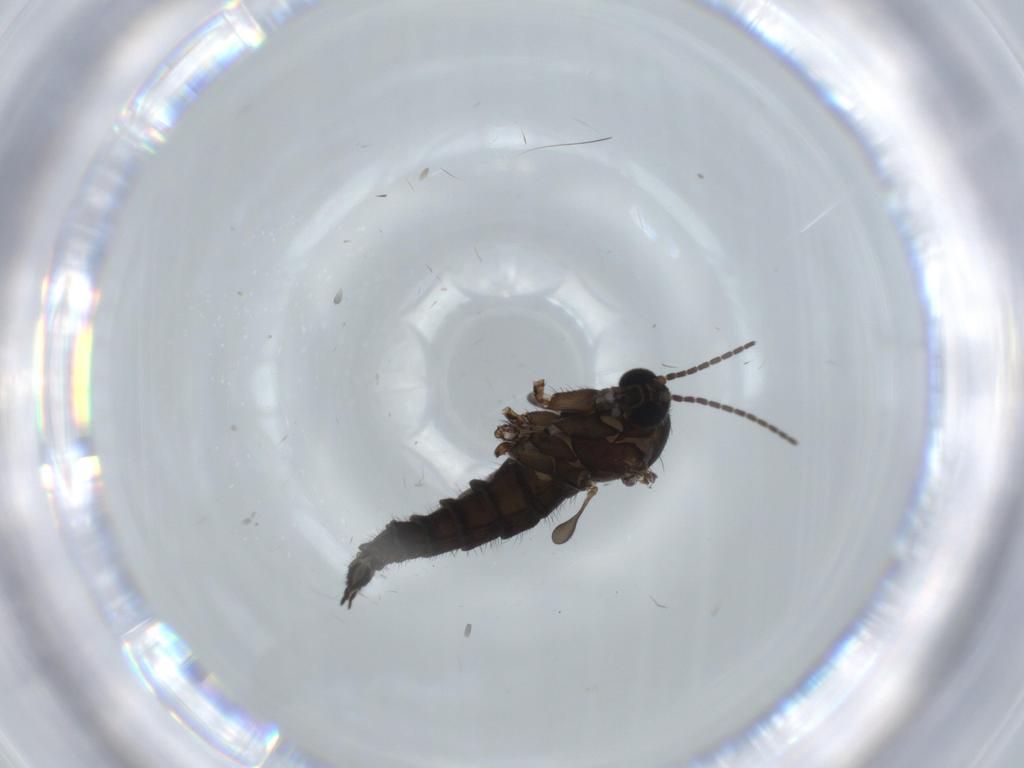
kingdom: Animalia
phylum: Arthropoda
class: Insecta
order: Diptera
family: Sciaridae
